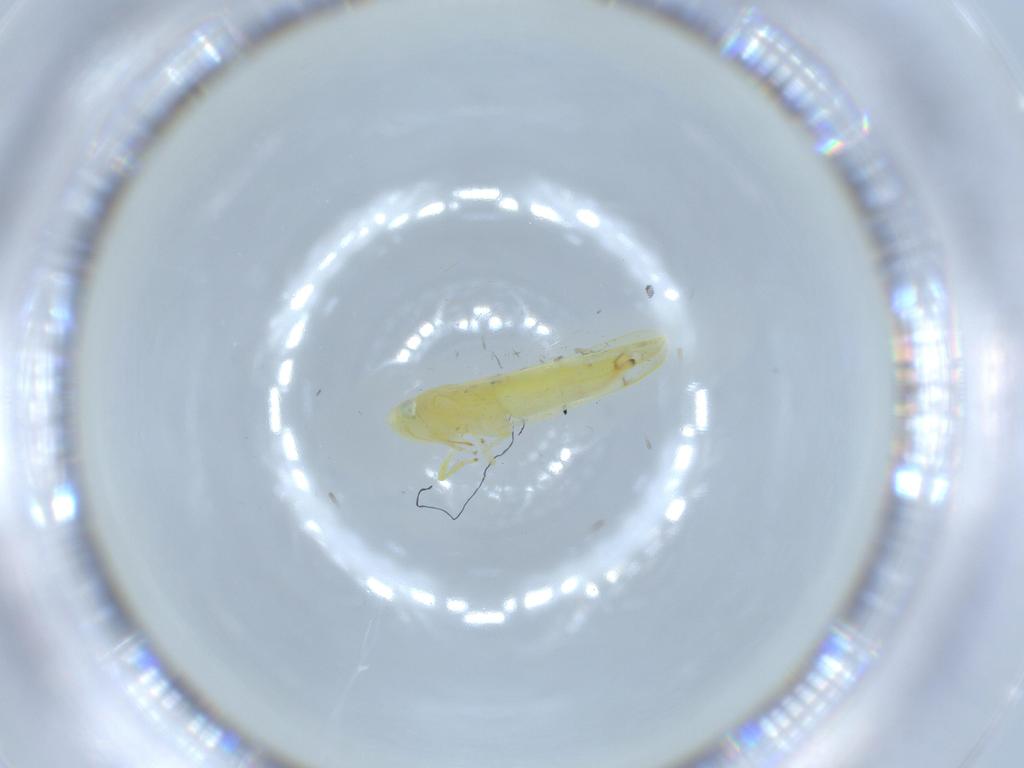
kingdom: Animalia
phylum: Arthropoda
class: Insecta
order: Hemiptera
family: Cicadellidae
